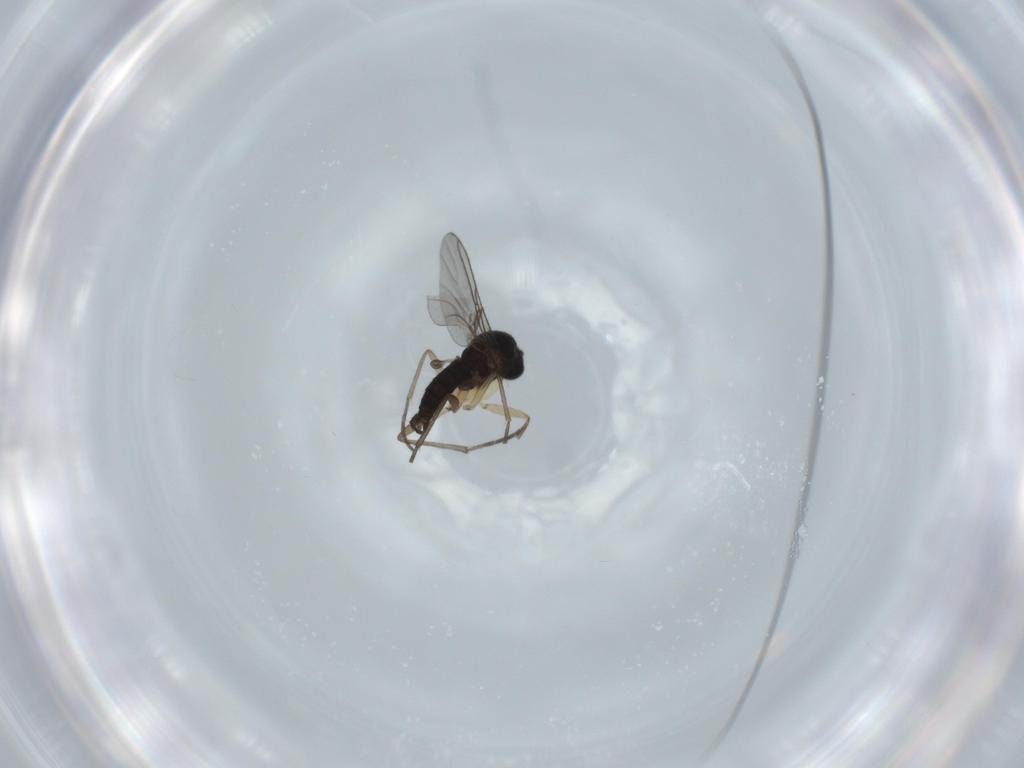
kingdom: Animalia
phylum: Arthropoda
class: Insecta
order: Diptera
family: Sciaridae
